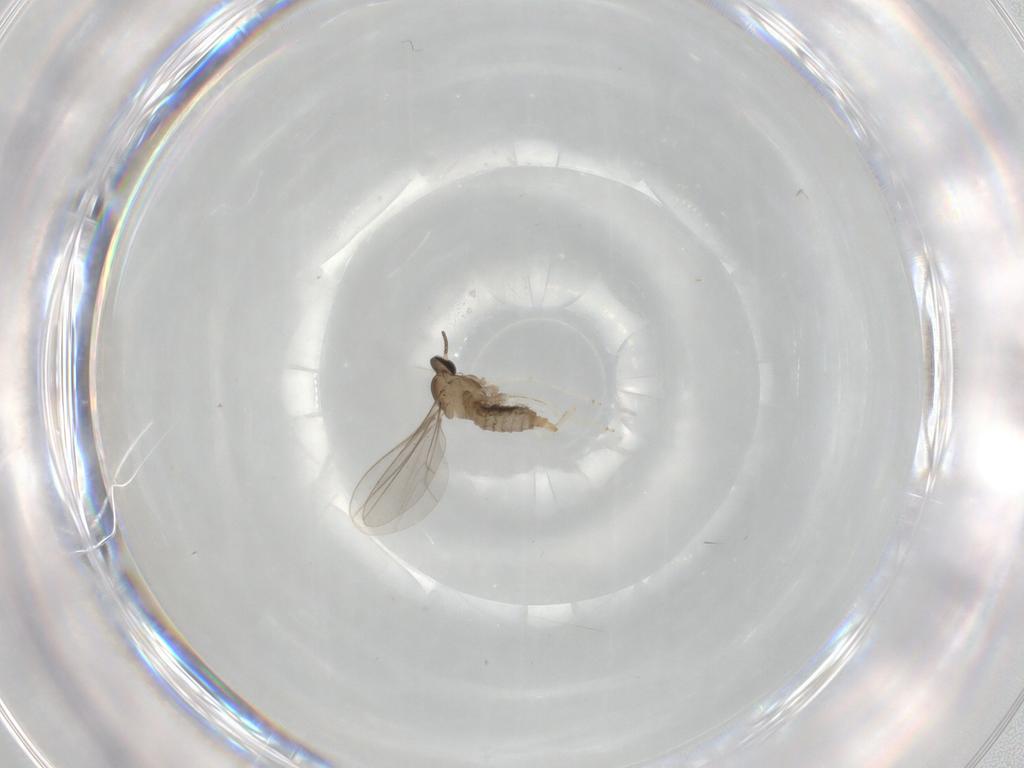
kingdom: Animalia
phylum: Arthropoda
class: Insecta
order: Diptera
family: Cecidomyiidae
